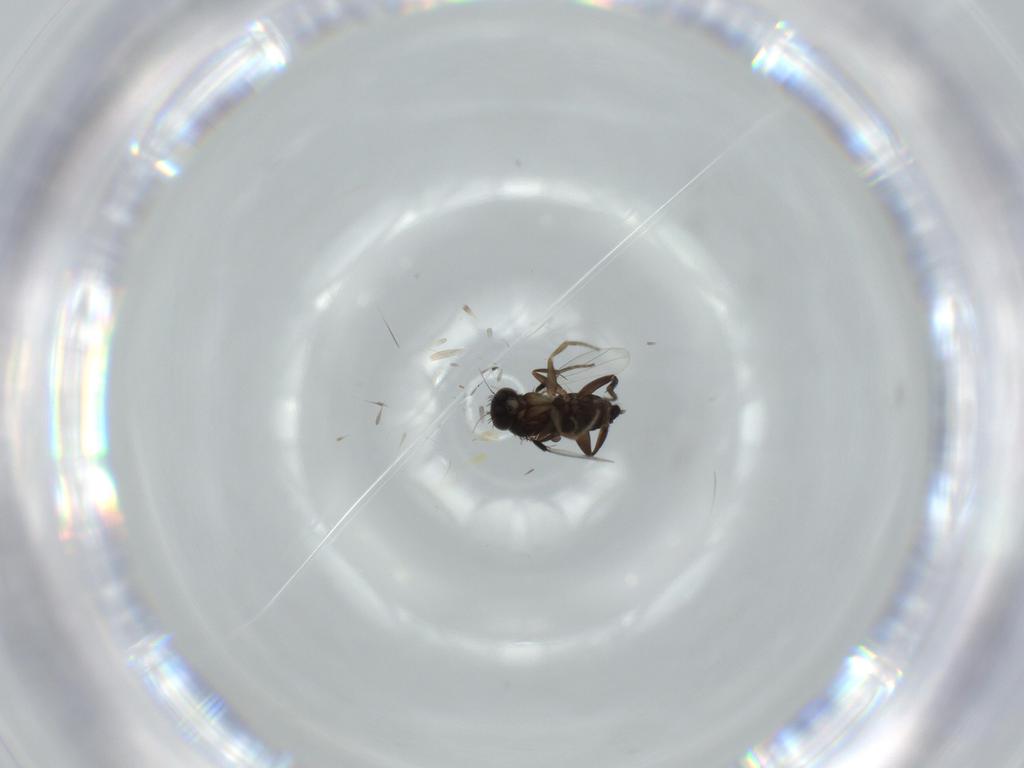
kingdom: Animalia
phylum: Arthropoda
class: Insecta
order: Diptera
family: Phoridae
